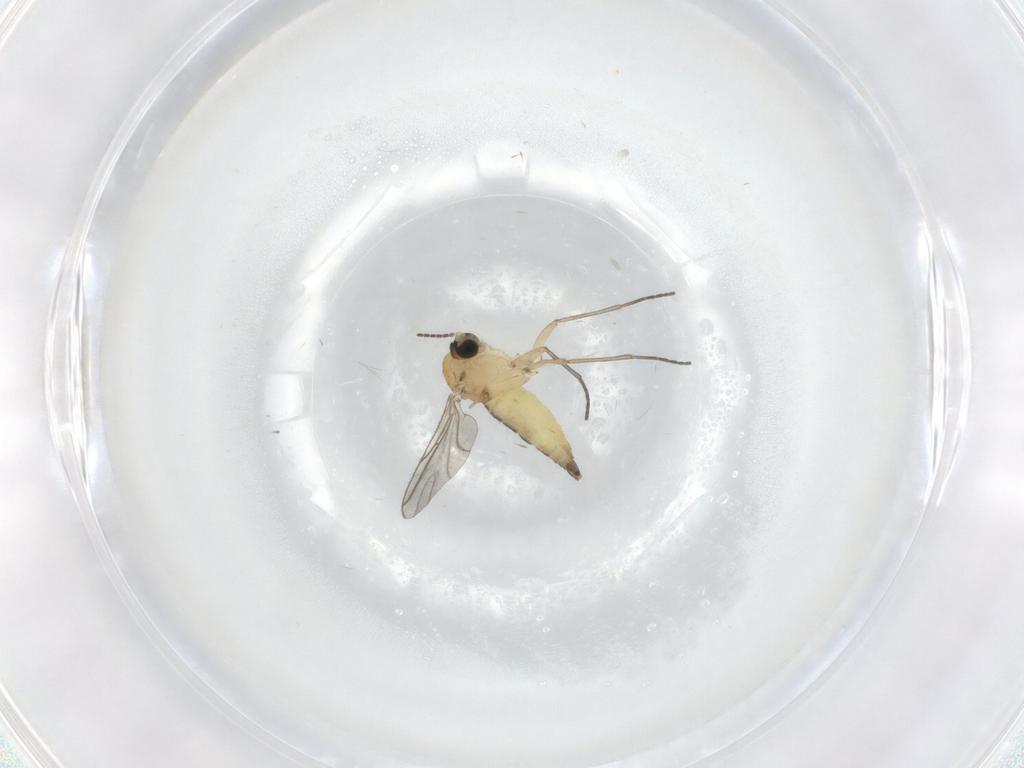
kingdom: Animalia
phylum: Arthropoda
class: Insecta
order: Diptera
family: Sciaridae
